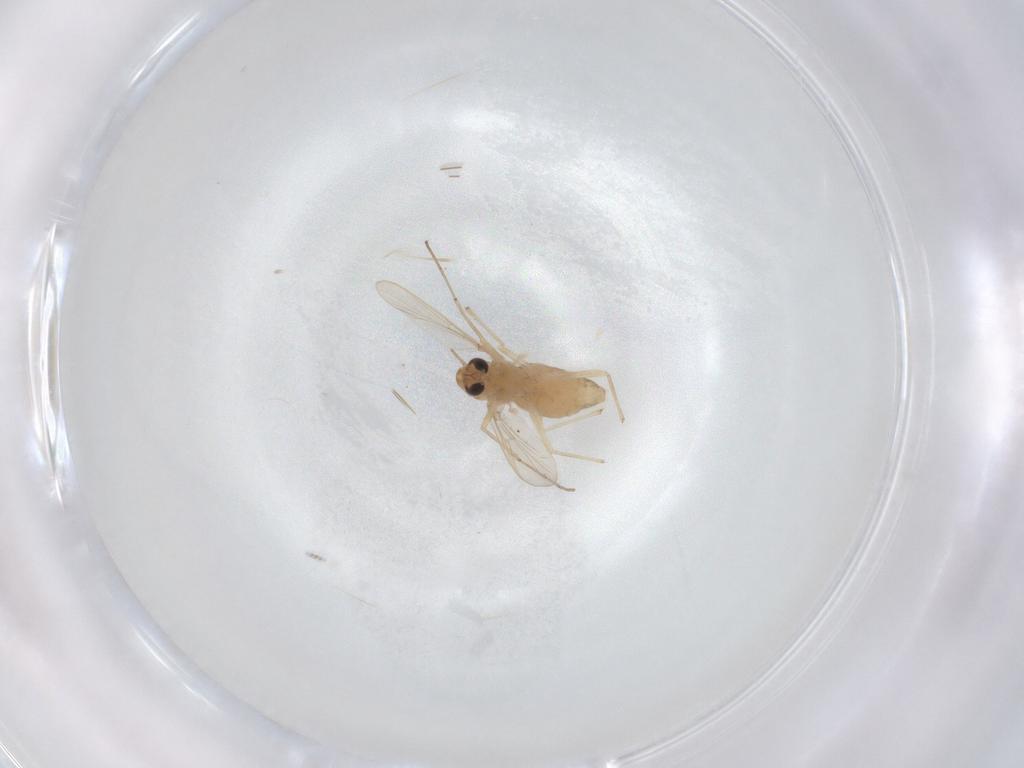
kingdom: Animalia
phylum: Arthropoda
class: Insecta
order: Diptera
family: Chironomidae
